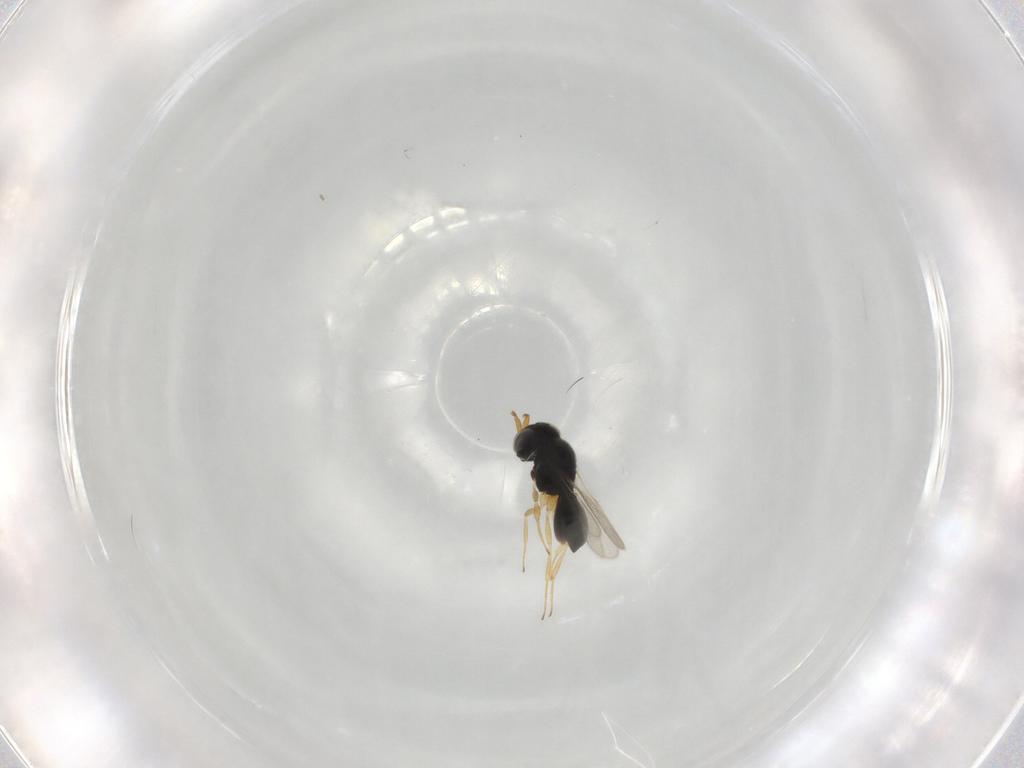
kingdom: Animalia
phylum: Arthropoda
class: Insecta
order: Hymenoptera
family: Scelionidae
